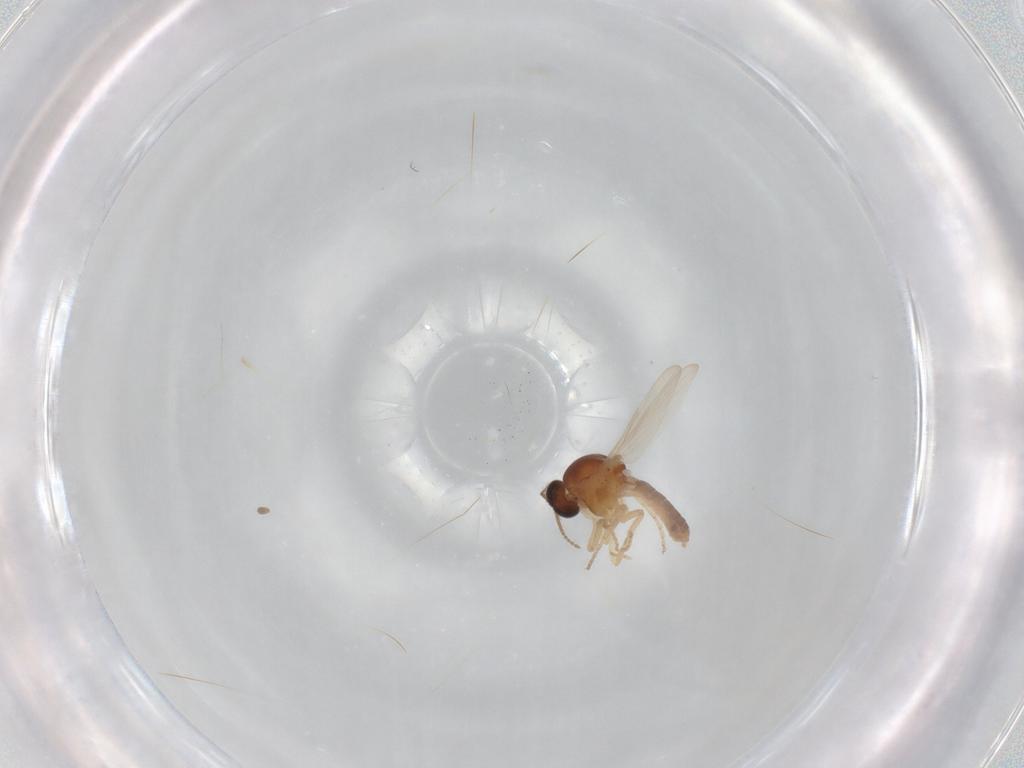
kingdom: Animalia
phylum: Arthropoda
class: Insecta
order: Diptera
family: Ceratopogonidae
